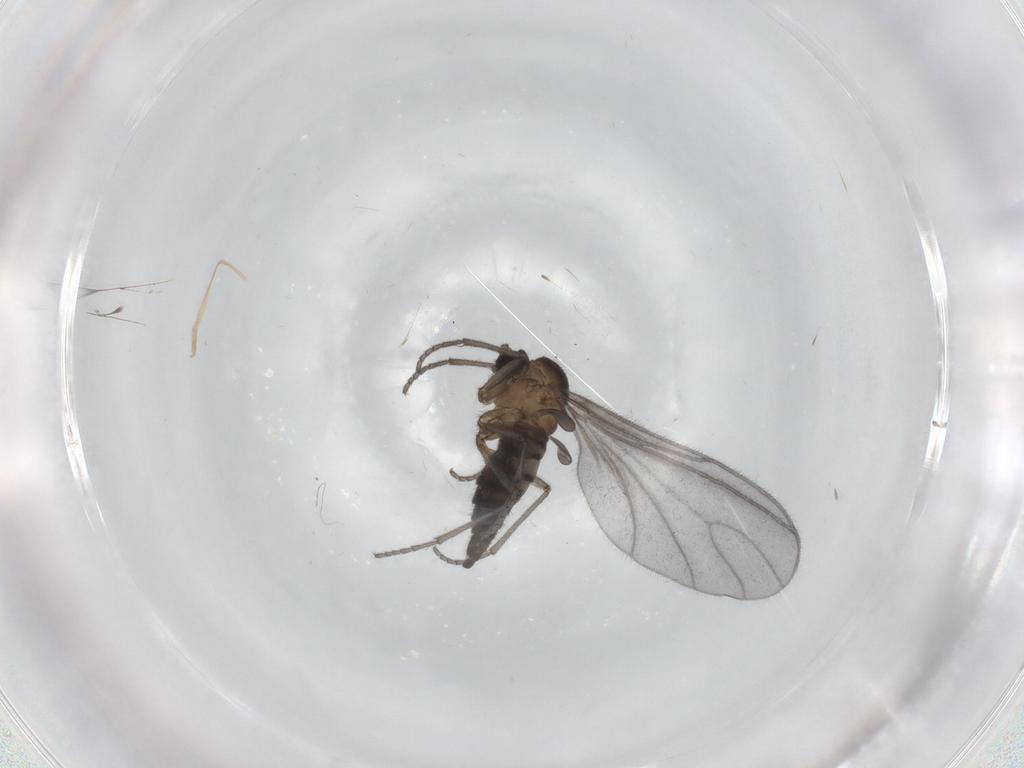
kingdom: Animalia
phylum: Arthropoda
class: Insecta
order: Diptera
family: Sciaridae
